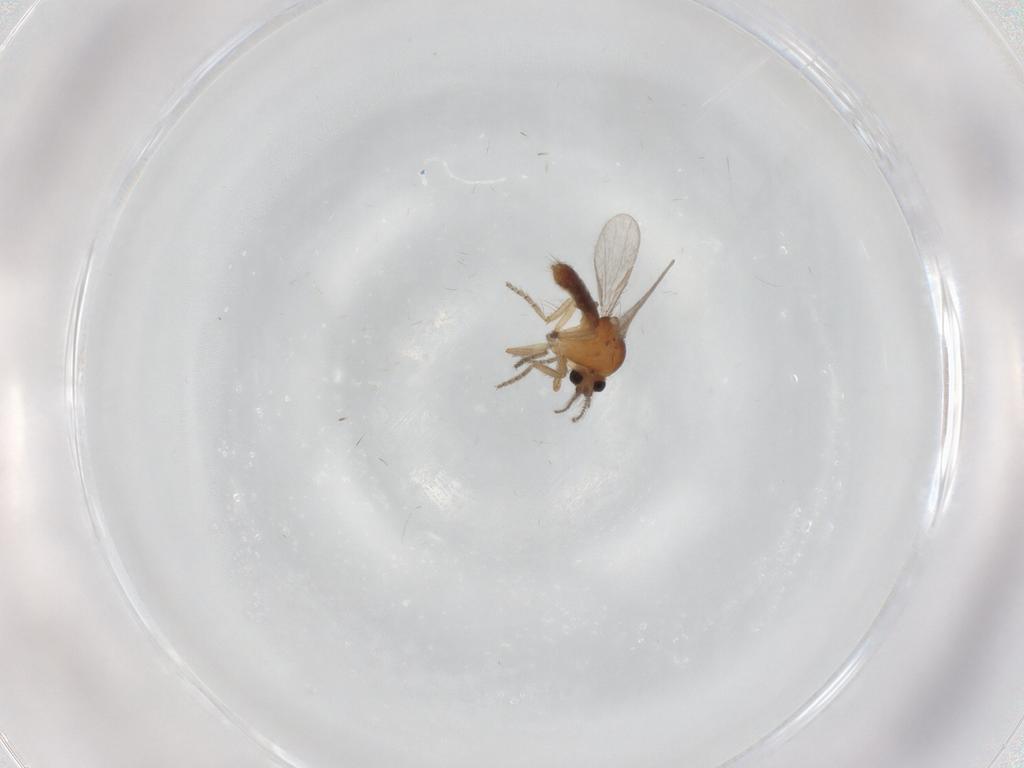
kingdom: Animalia
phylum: Arthropoda
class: Insecta
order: Diptera
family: Ceratopogonidae
